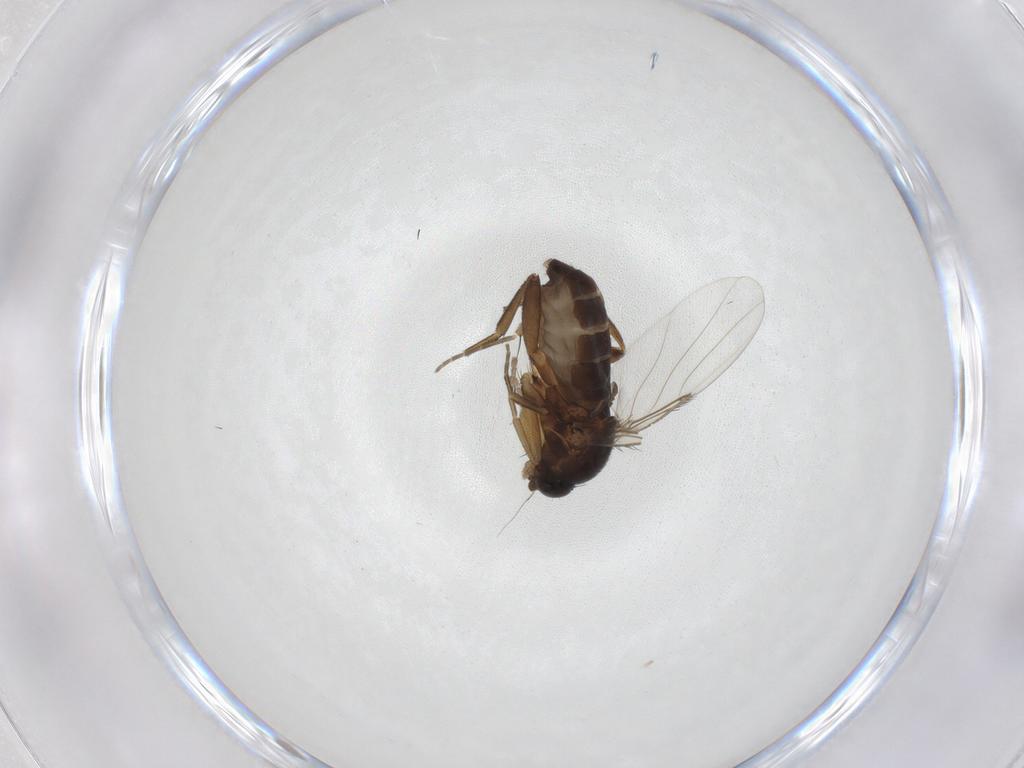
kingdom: Animalia
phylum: Arthropoda
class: Insecta
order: Diptera
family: Phoridae
